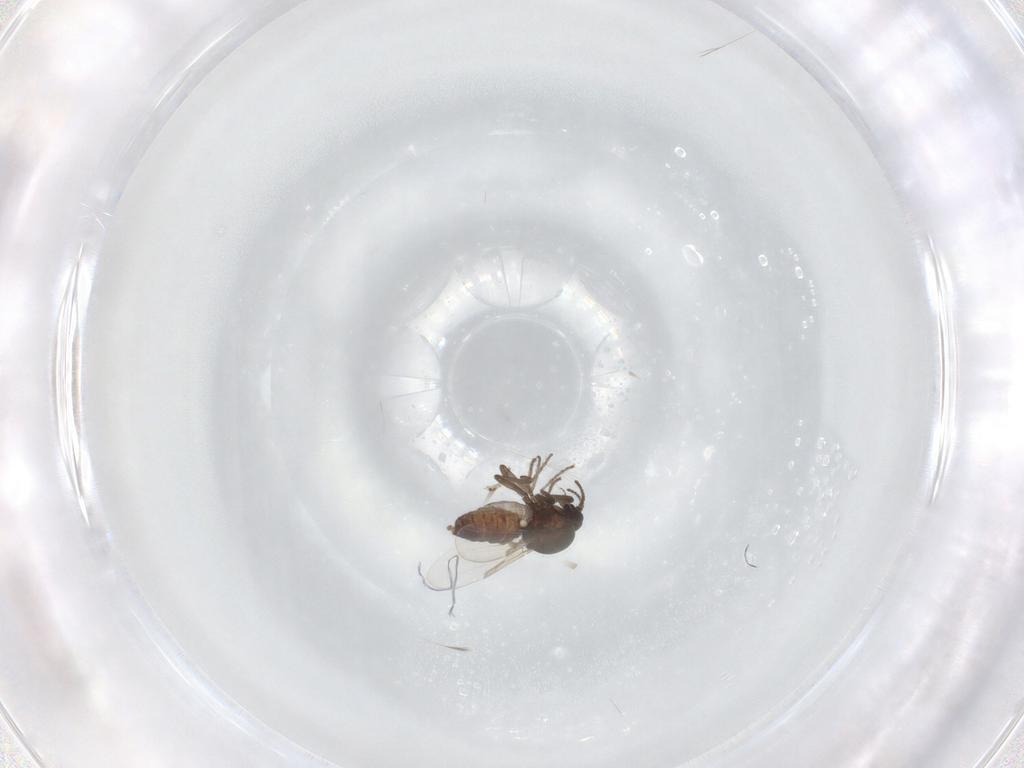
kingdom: Animalia
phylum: Arthropoda
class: Insecta
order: Diptera
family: Ceratopogonidae
